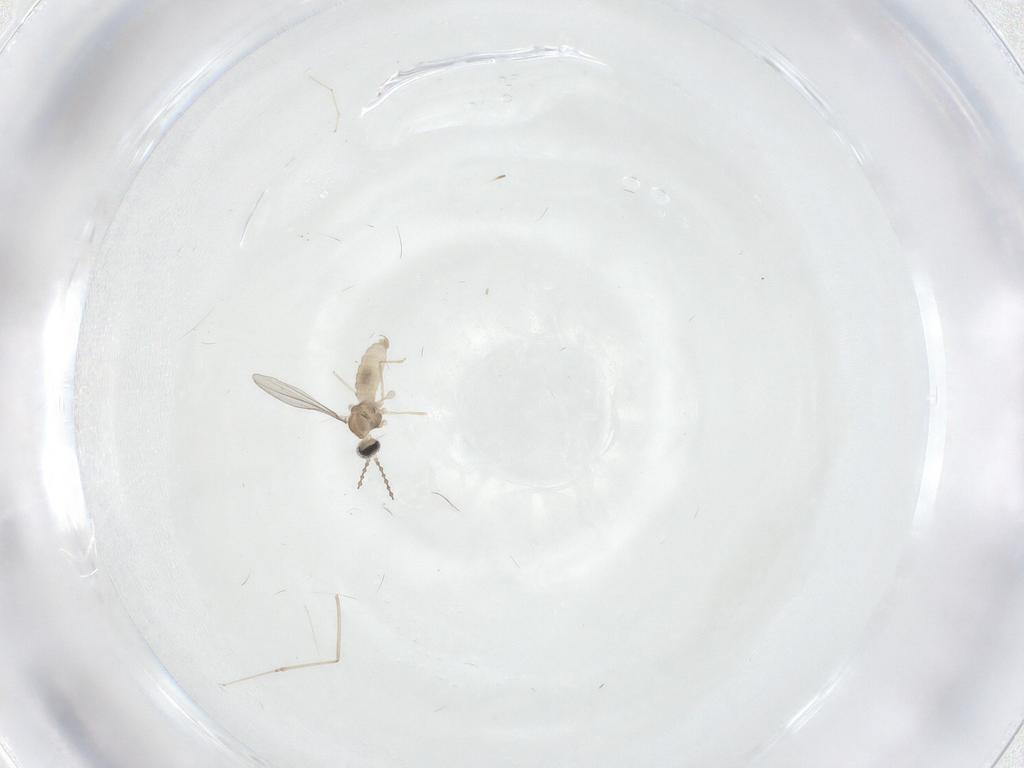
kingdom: Animalia
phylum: Arthropoda
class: Insecta
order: Diptera
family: Cecidomyiidae
